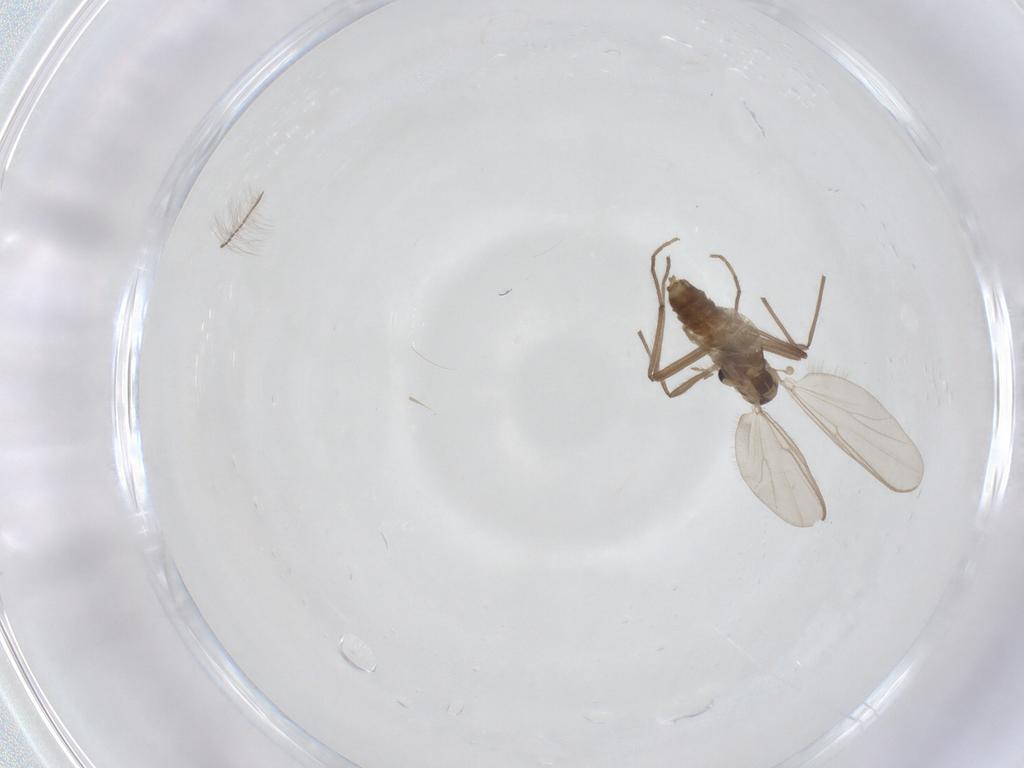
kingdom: Animalia
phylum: Arthropoda
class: Insecta
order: Diptera
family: Chironomidae
